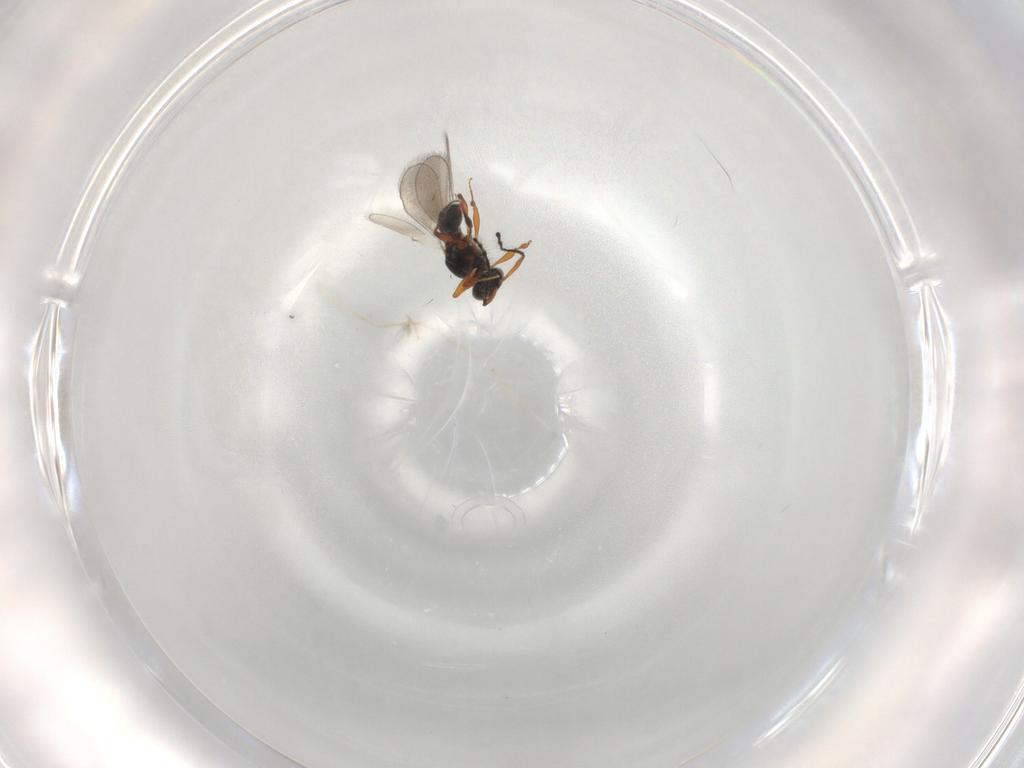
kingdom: Animalia
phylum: Arthropoda
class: Insecta
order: Hymenoptera
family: Platygastridae
